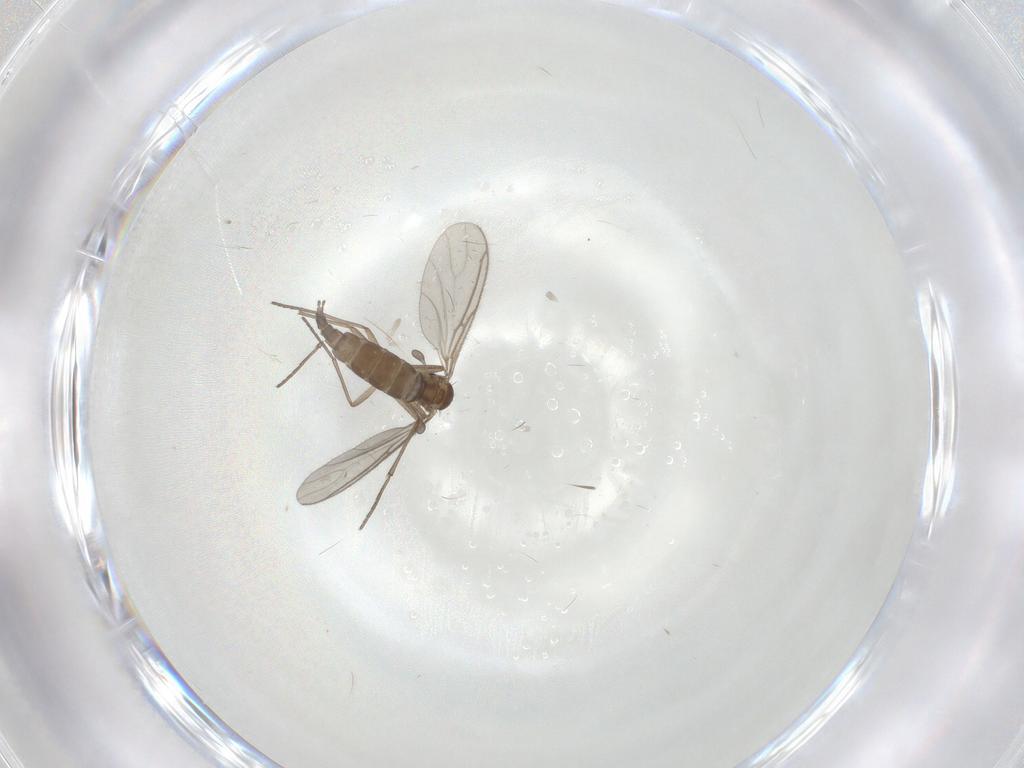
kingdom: Animalia
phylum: Arthropoda
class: Insecta
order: Diptera
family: Sciaridae
